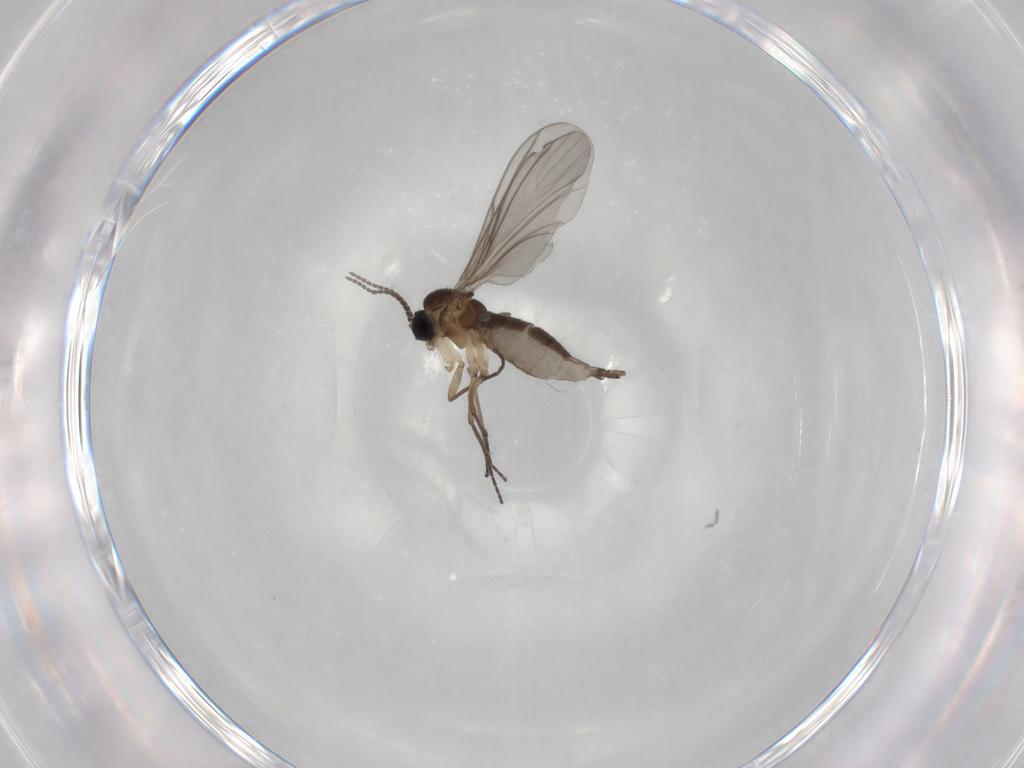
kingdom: Animalia
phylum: Arthropoda
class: Insecta
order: Diptera
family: Sciaridae
